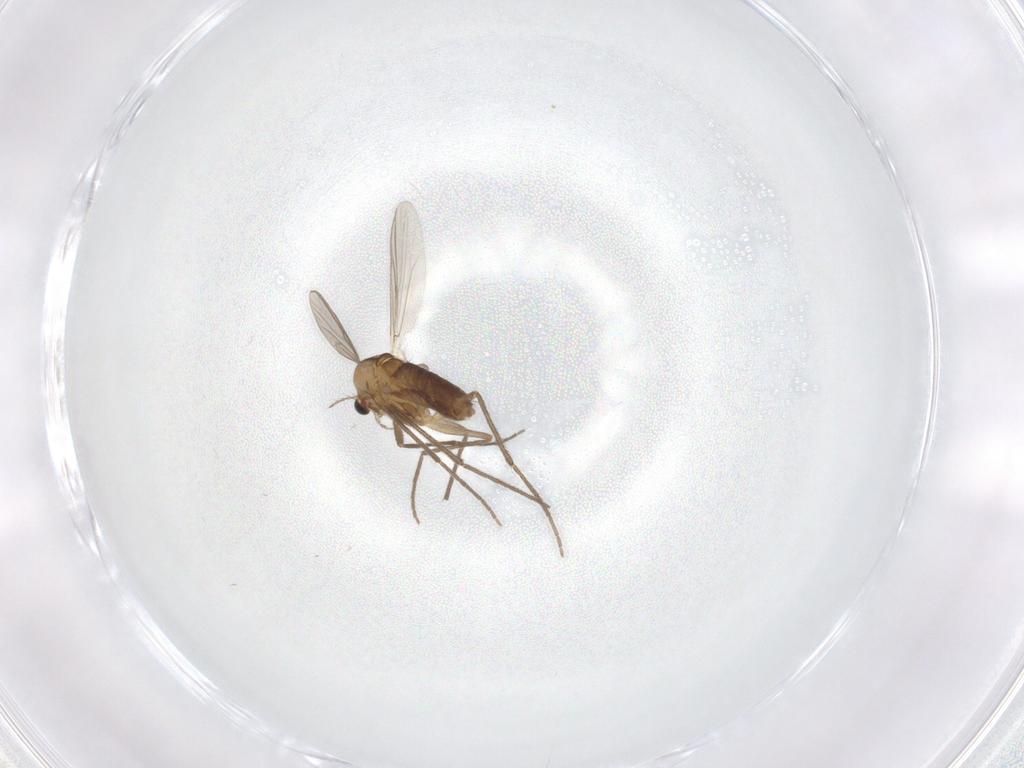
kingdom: Animalia
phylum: Arthropoda
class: Insecta
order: Diptera
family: Chironomidae
